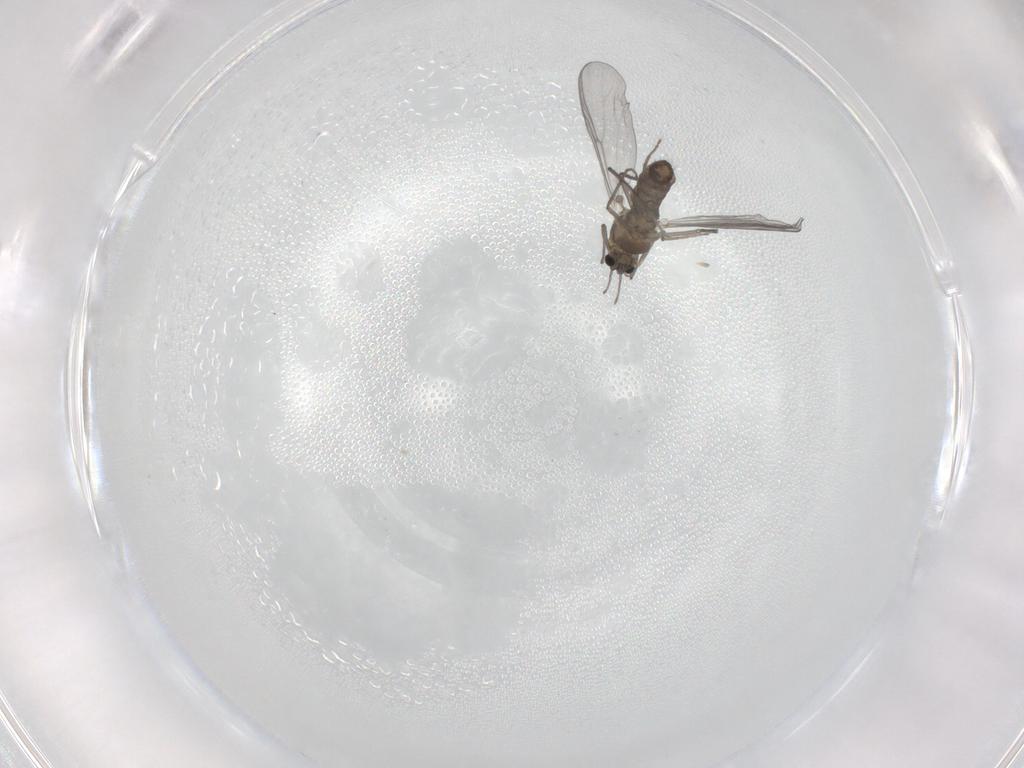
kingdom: Animalia
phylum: Arthropoda
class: Insecta
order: Diptera
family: Chironomidae
